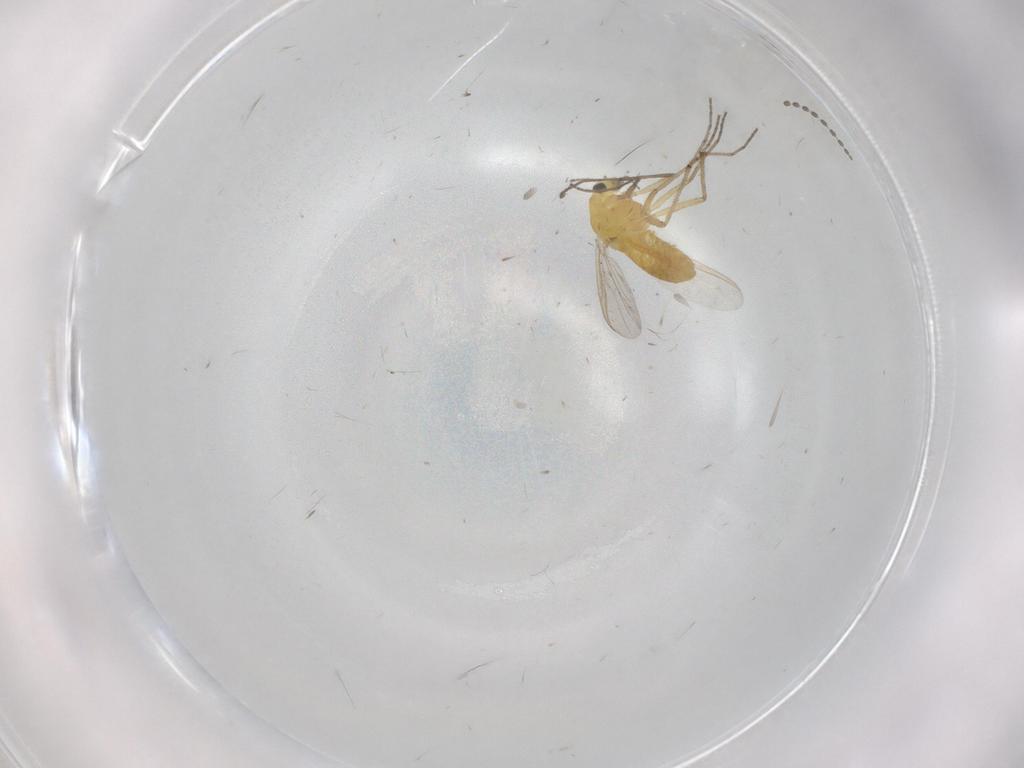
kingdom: Animalia
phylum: Arthropoda
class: Insecta
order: Diptera
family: Chironomidae
